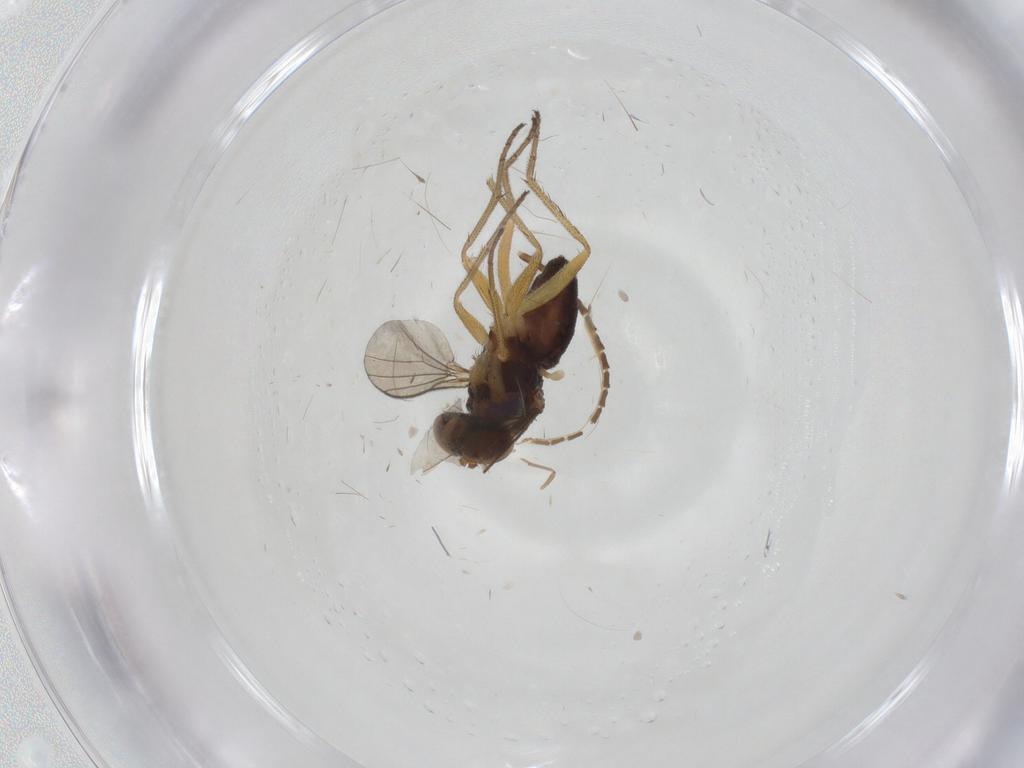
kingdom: Animalia
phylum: Arthropoda
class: Insecta
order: Diptera
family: Dolichopodidae
